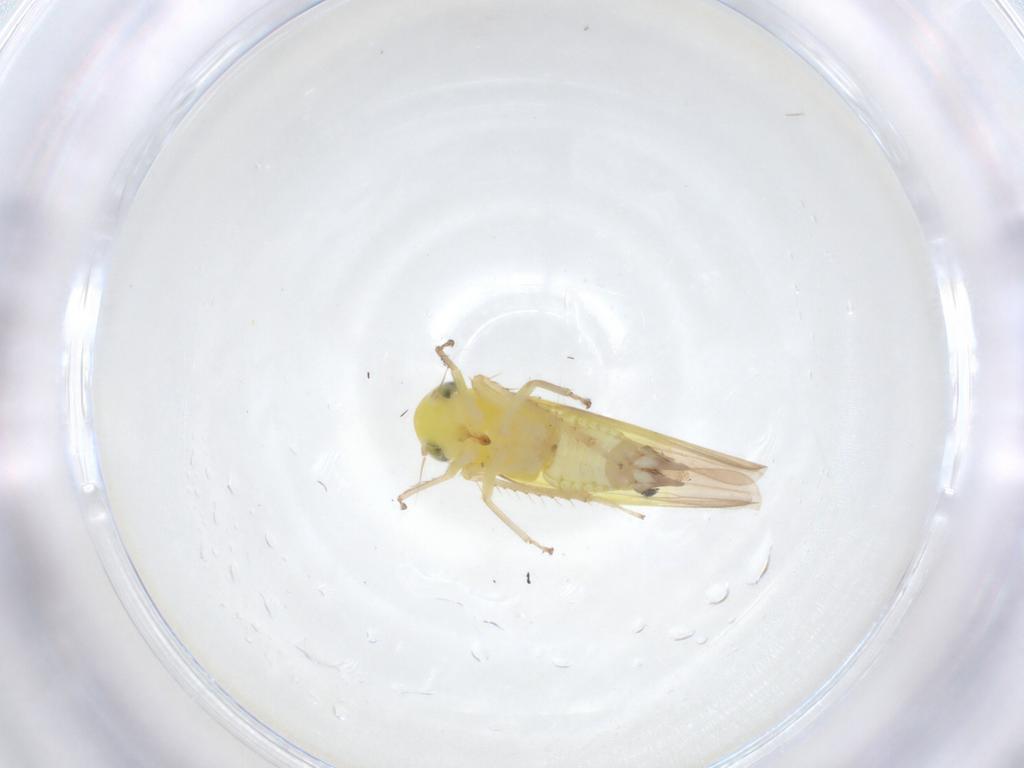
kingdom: Animalia
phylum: Arthropoda
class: Insecta
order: Hemiptera
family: Cicadellidae
